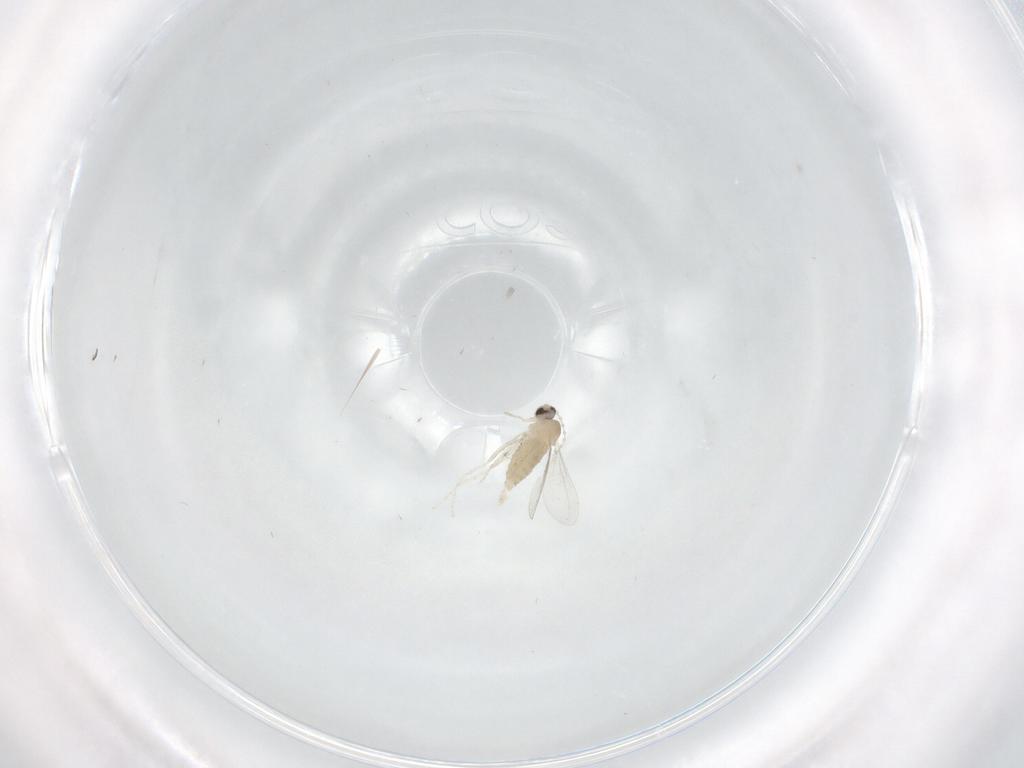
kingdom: Animalia
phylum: Arthropoda
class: Insecta
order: Diptera
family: Cecidomyiidae
